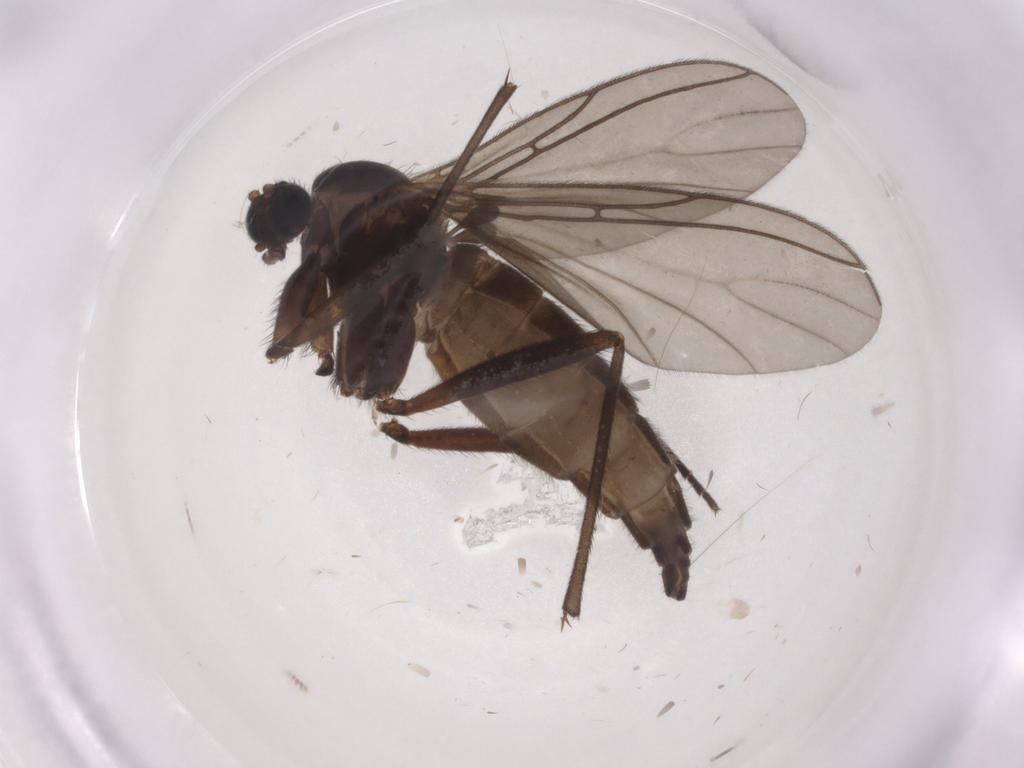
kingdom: Animalia
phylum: Arthropoda
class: Insecta
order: Diptera
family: Sciaridae
